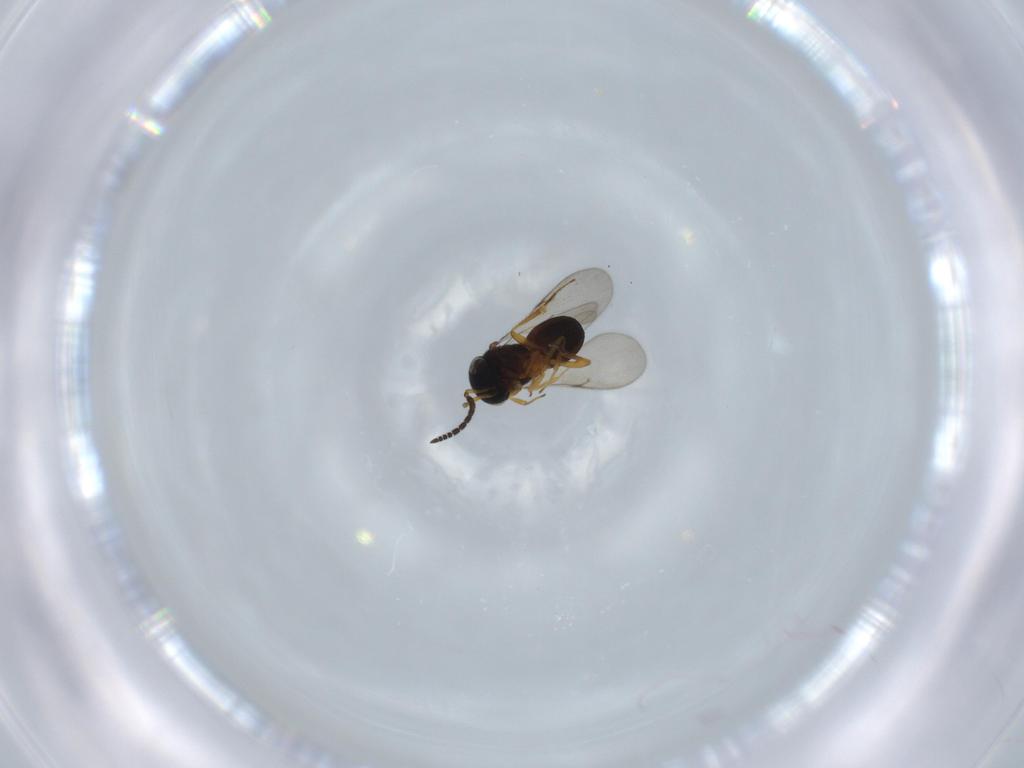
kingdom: Animalia
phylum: Arthropoda
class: Insecta
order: Hymenoptera
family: Scelionidae
